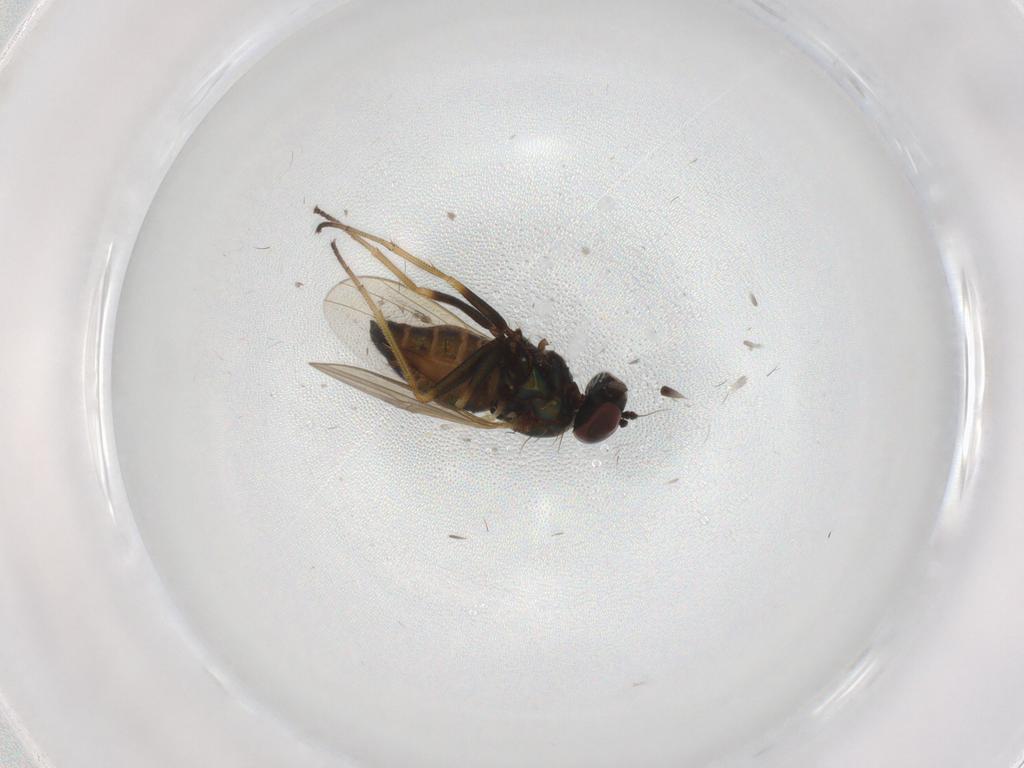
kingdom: Animalia
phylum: Arthropoda
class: Insecta
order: Diptera
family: Dolichopodidae
